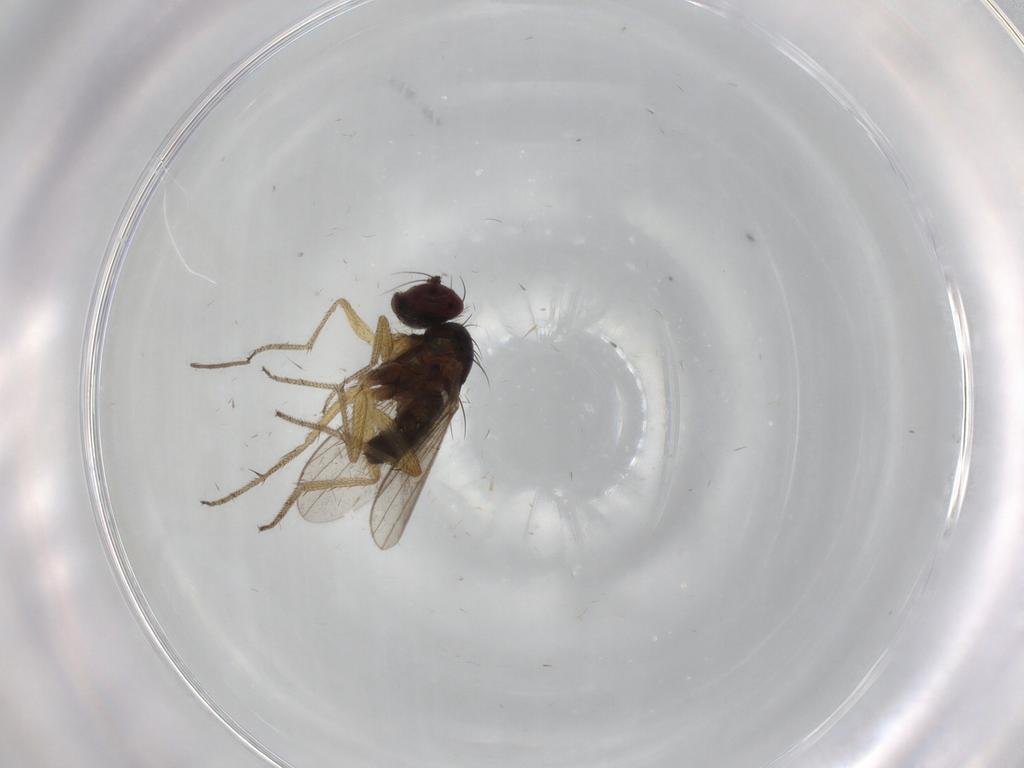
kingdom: Animalia
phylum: Arthropoda
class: Insecta
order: Diptera
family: Dolichopodidae
